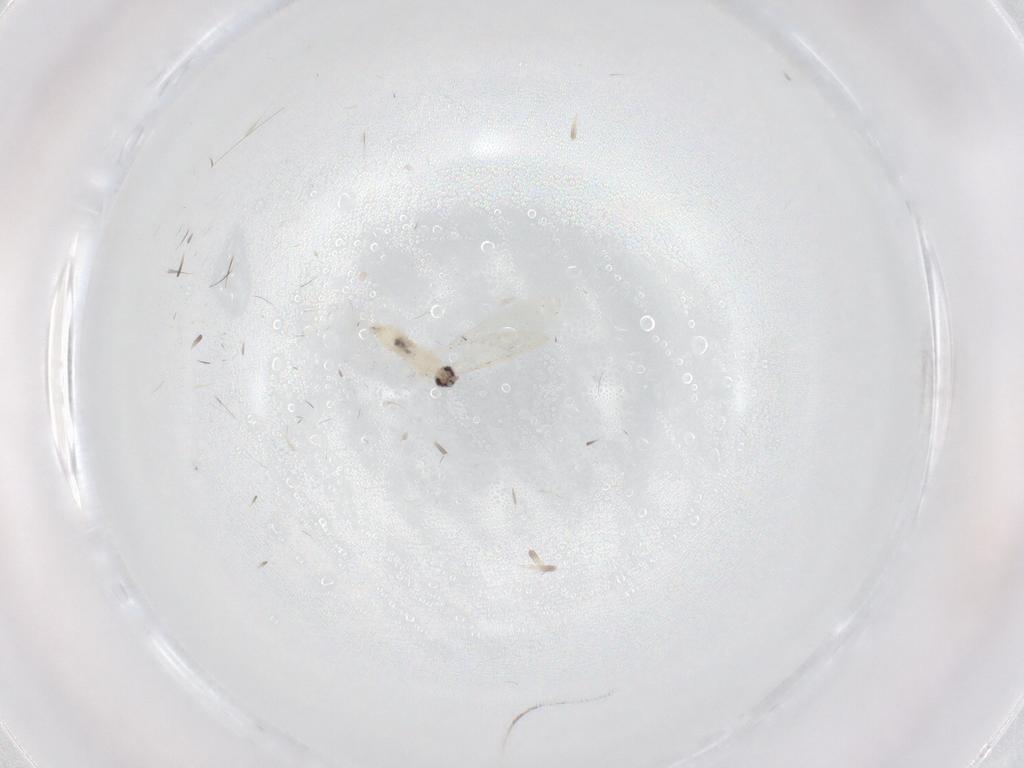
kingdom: Animalia
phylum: Arthropoda
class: Insecta
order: Diptera
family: Cecidomyiidae
